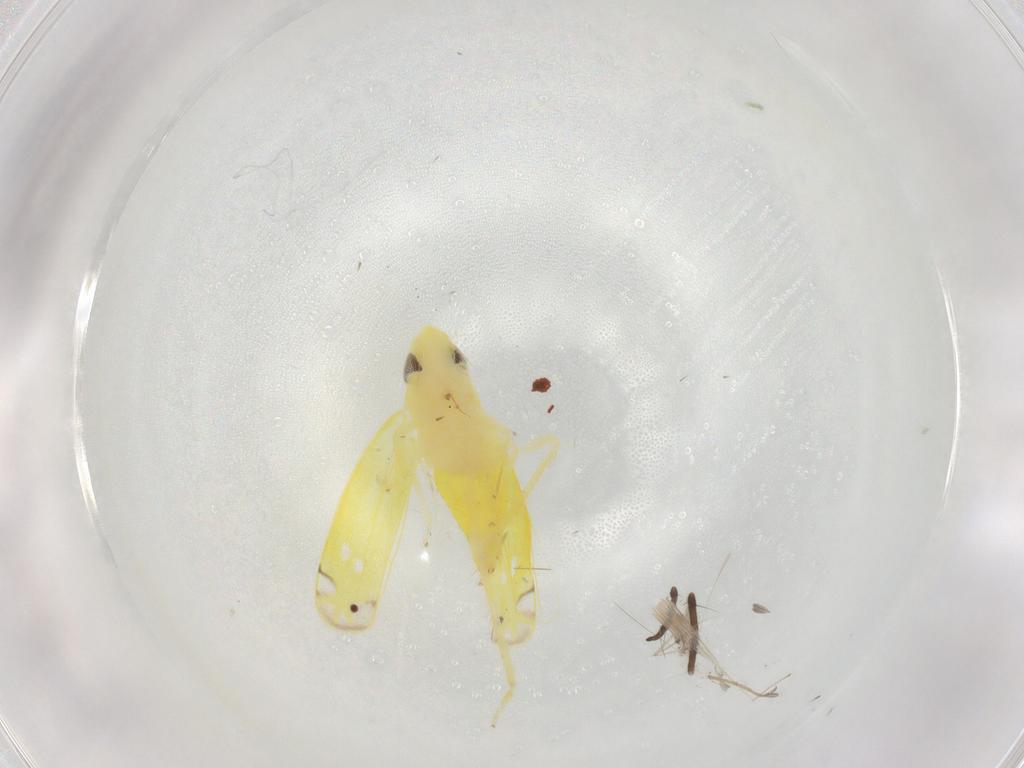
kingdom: Animalia
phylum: Arthropoda
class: Insecta
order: Hemiptera
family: Cicadellidae
